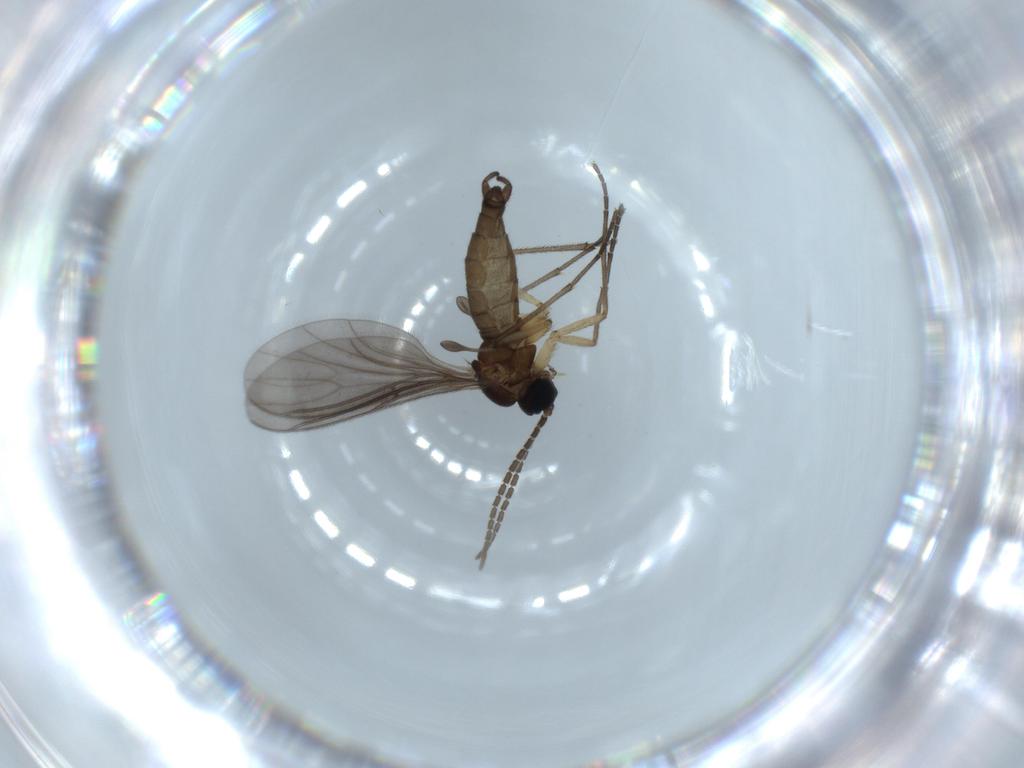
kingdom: Animalia
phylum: Arthropoda
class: Insecta
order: Diptera
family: Sciaridae
